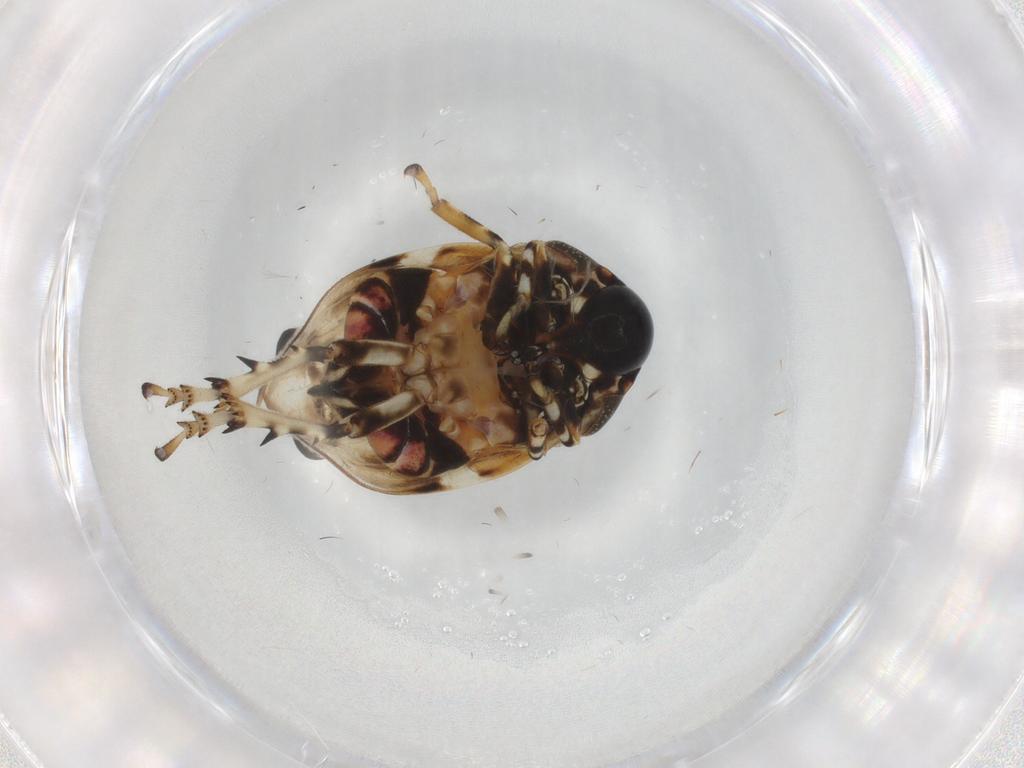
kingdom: Animalia
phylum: Arthropoda
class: Insecta
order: Hemiptera
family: Clastopteridae
